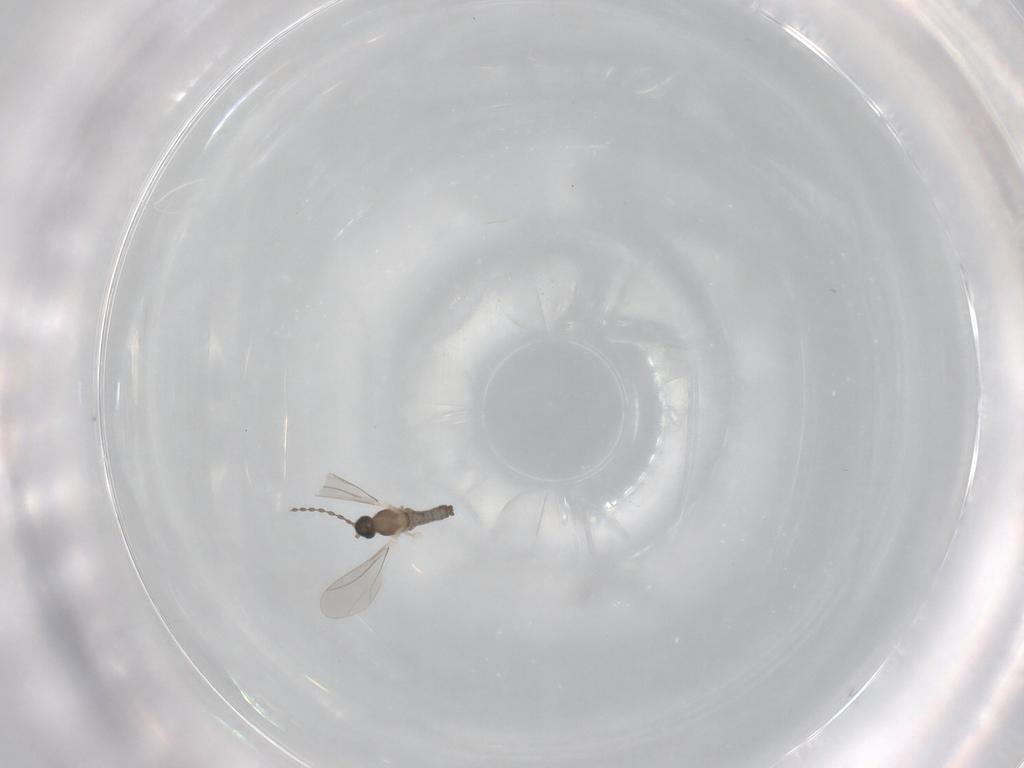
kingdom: Animalia
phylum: Arthropoda
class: Insecta
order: Diptera
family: Cecidomyiidae
